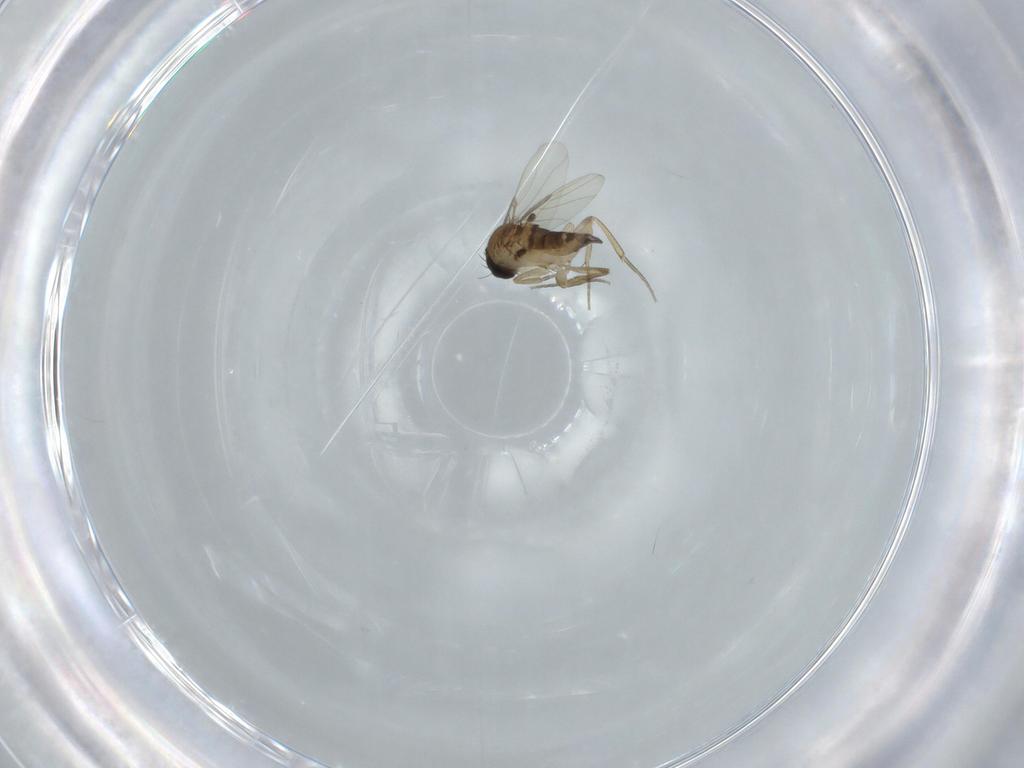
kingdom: Animalia
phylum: Arthropoda
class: Insecta
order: Diptera
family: Phoridae
